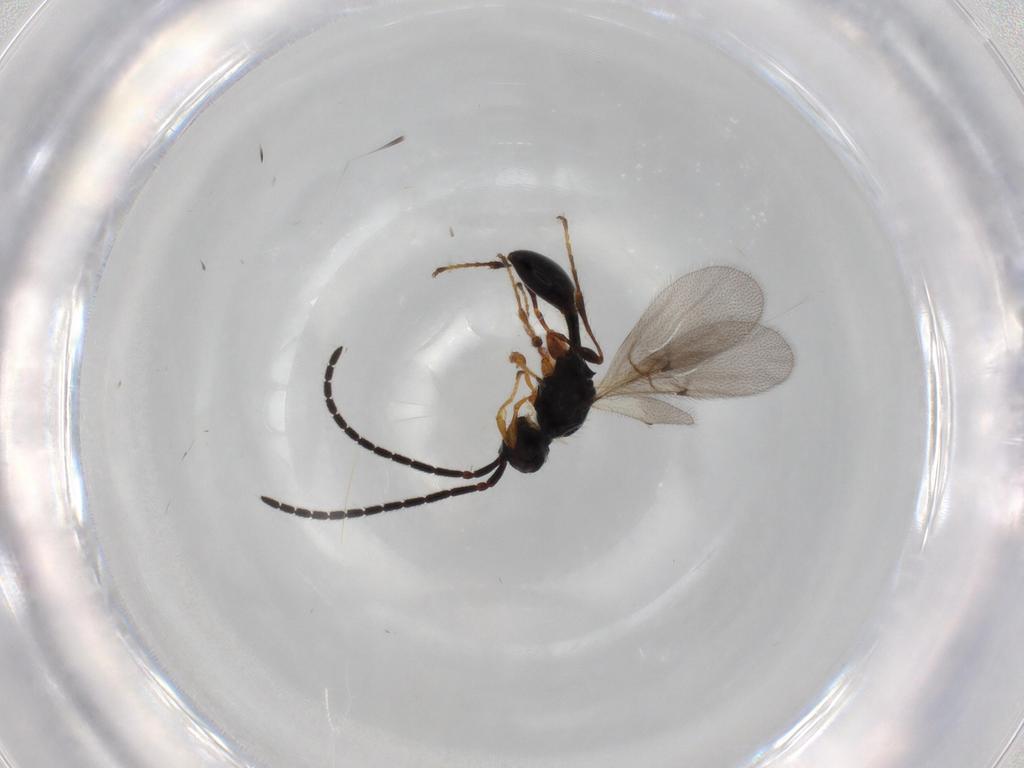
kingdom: Animalia
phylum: Arthropoda
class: Insecta
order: Hymenoptera
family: Diapriidae
